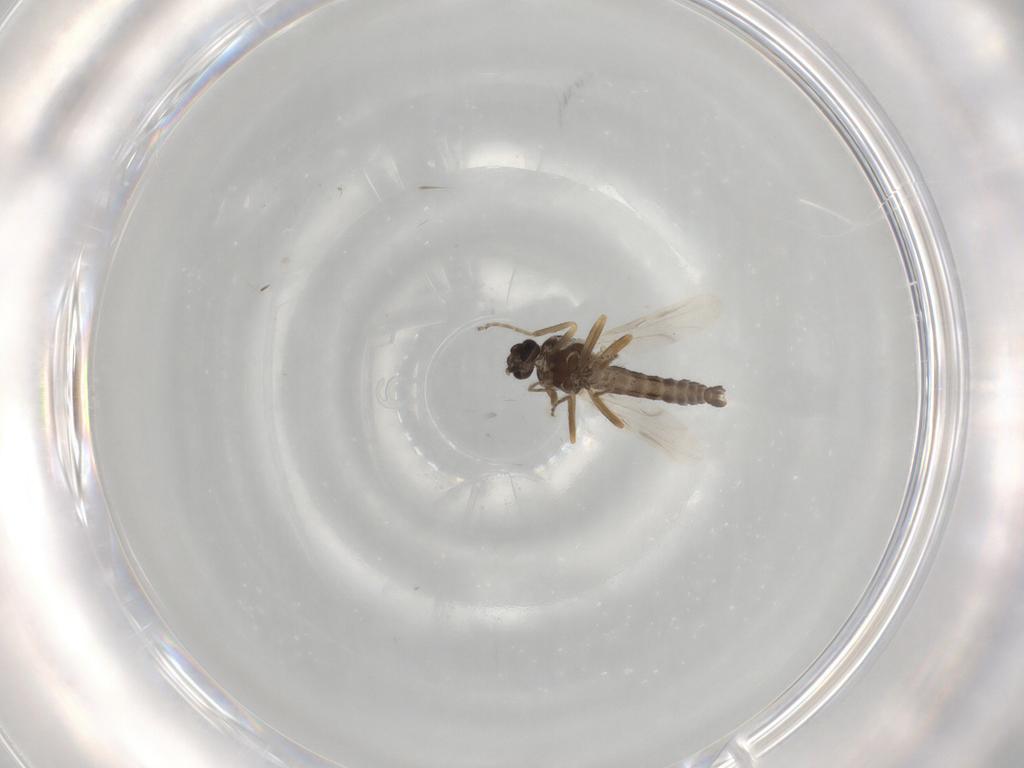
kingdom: Animalia
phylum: Arthropoda
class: Insecta
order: Diptera
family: Ceratopogonidae
